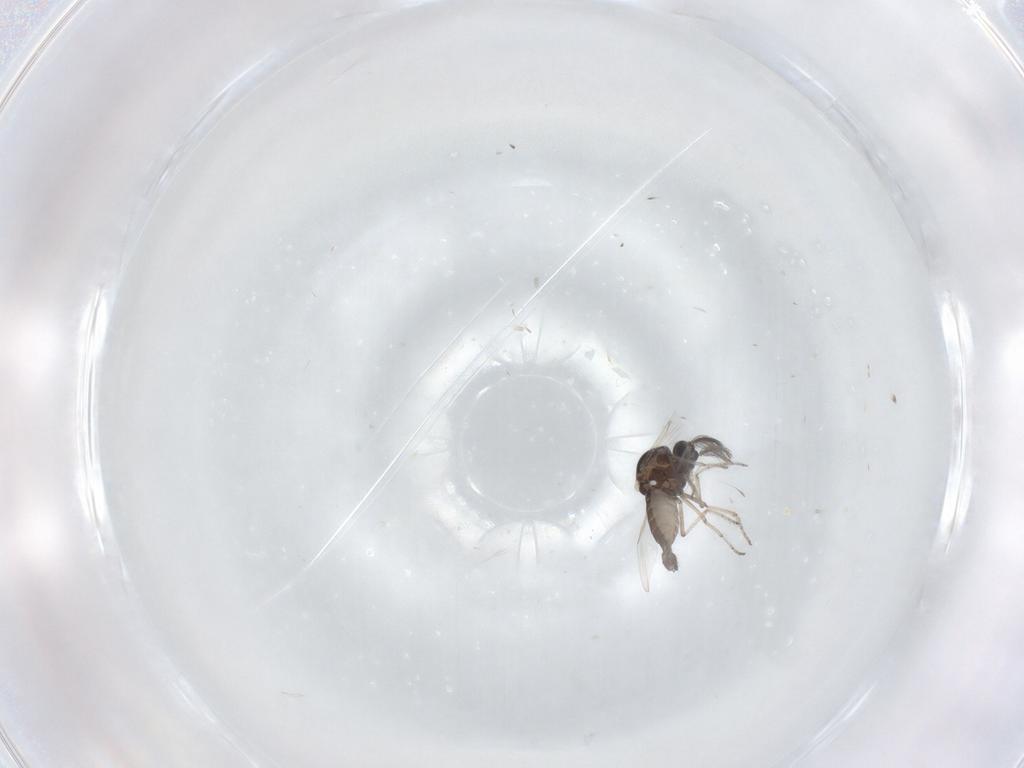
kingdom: Animalia
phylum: Arthropoda
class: Insecta
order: Diptera
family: Ceratopogonidae
